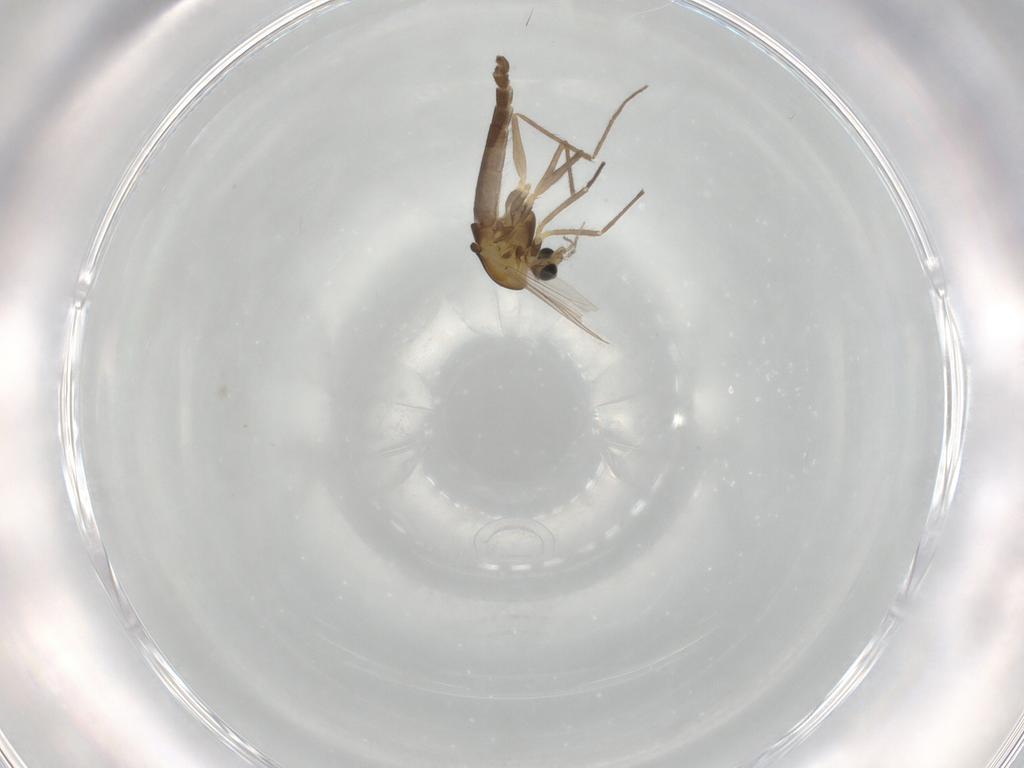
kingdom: Animalia
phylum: Arthropoda
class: Insecta
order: Diptera
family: Chironomidae
